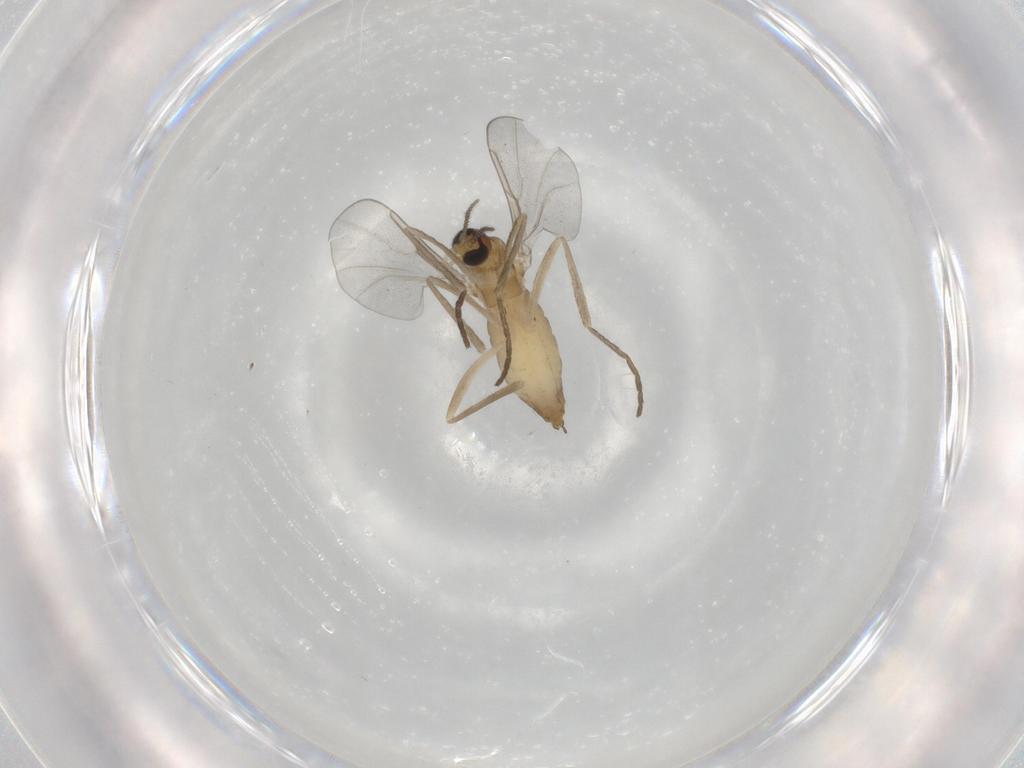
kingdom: Animalia
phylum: Arthropoda
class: Insecta
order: Diptera
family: Cecidomyiidae
